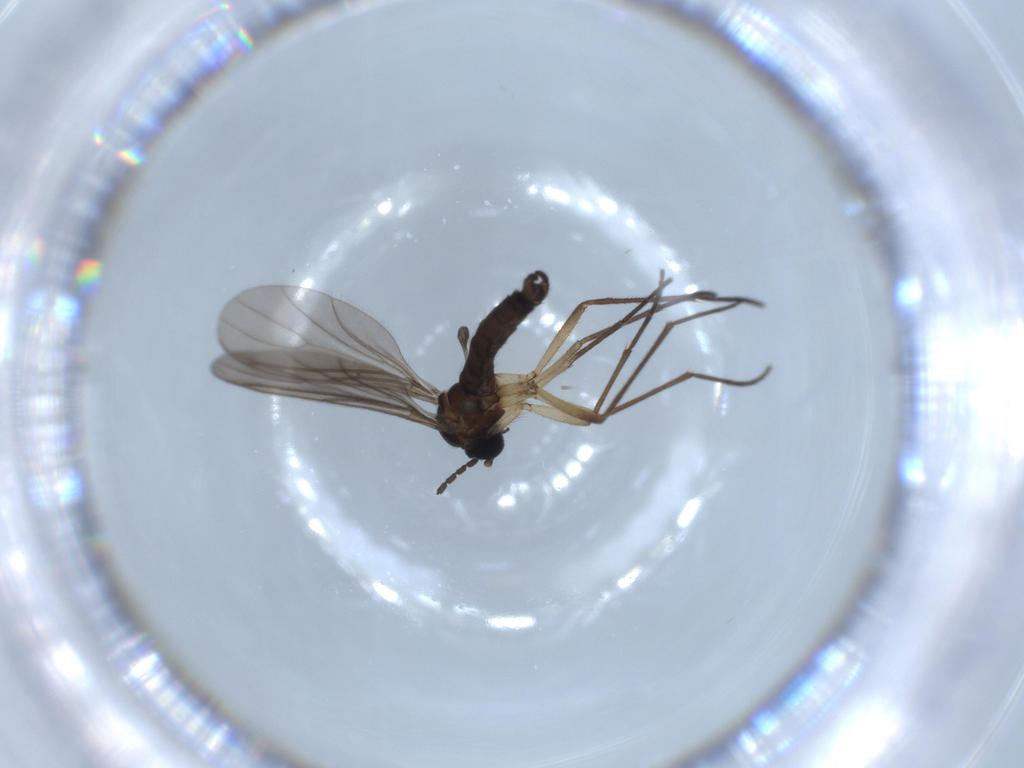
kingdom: Animalia
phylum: Arthropoda
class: Insecta
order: Diptera
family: Sciaridae
